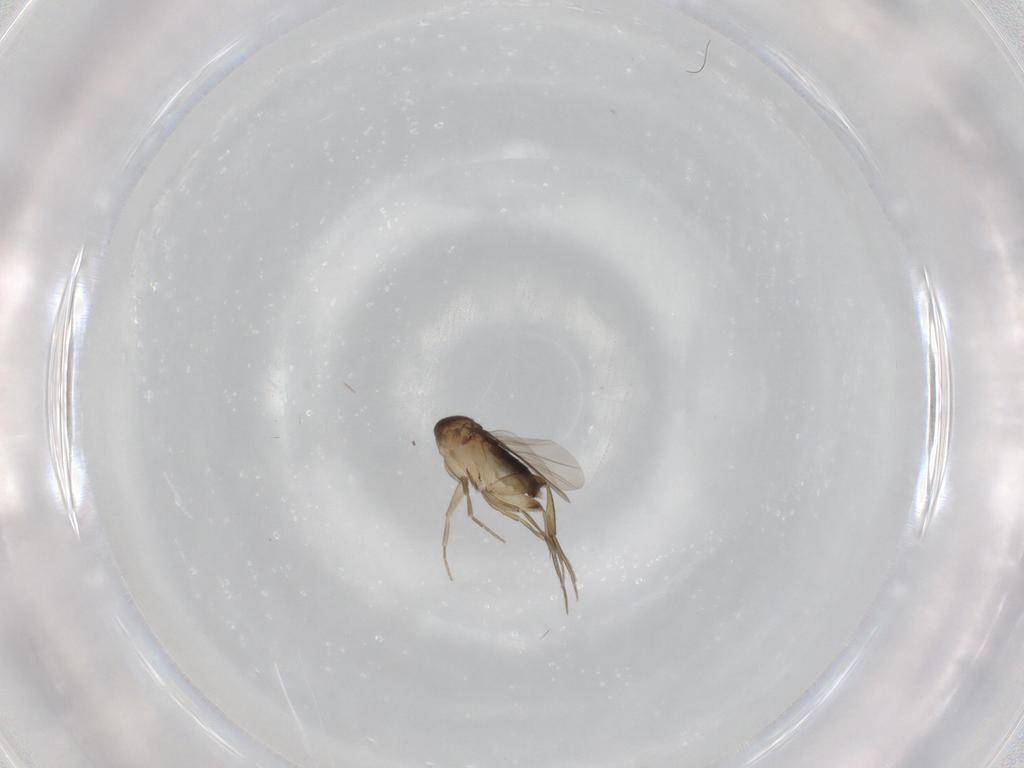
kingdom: Animalia
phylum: Arthropoda
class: Insecta
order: Diptera
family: Phoridae
